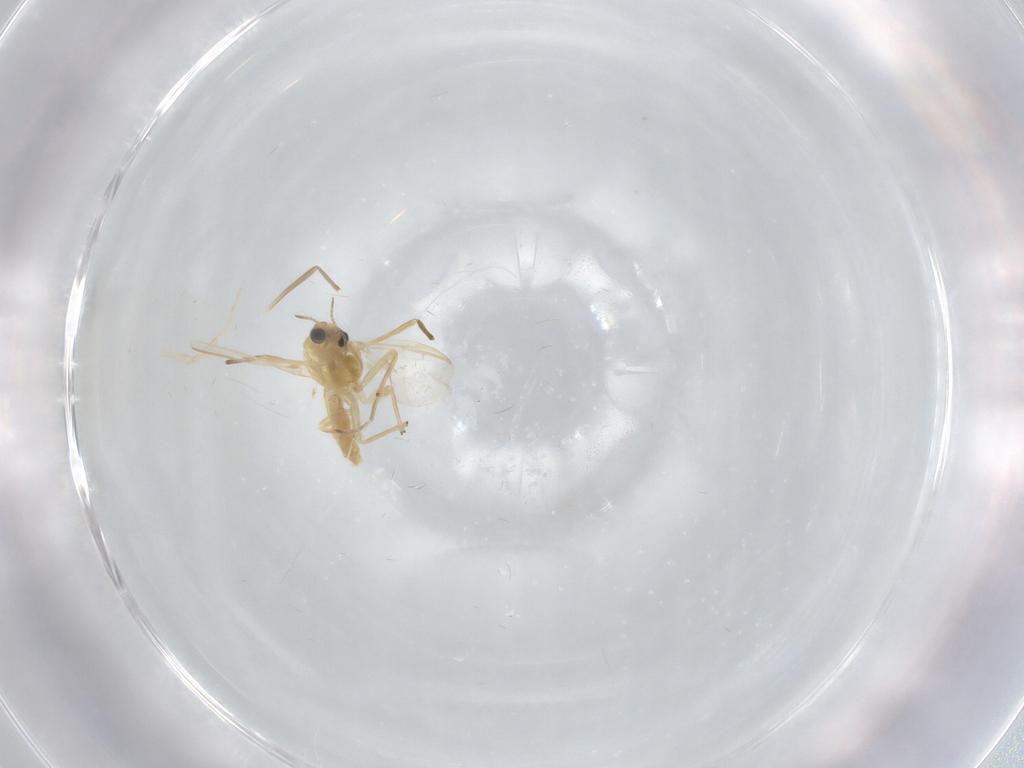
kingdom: Animalia
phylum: Arthropoda
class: Insecta
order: Diptera
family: Chironomidae
